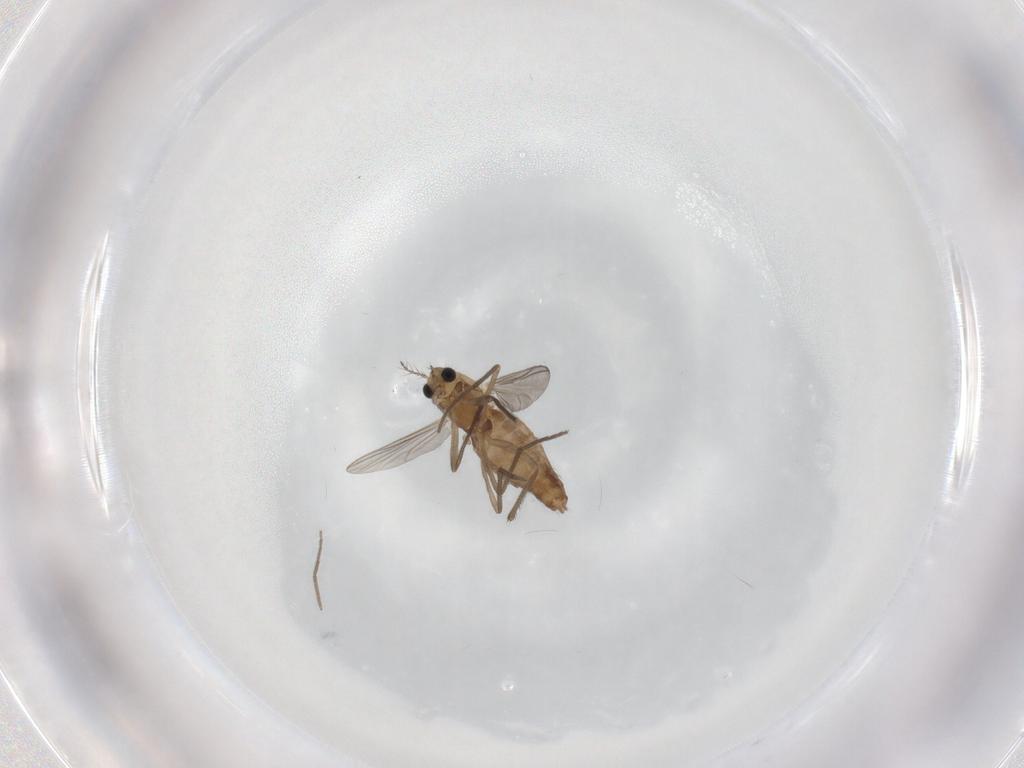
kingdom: Animalia
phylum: Arthropoda
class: Insecta
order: Diptera
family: Chironomidae
